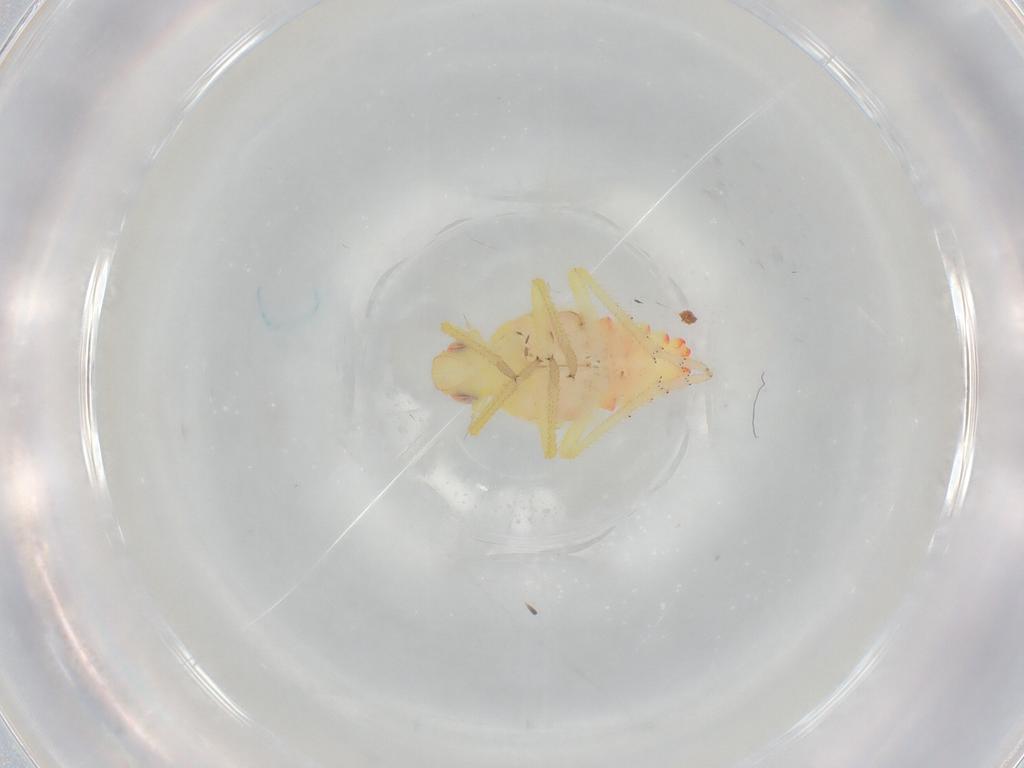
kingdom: Animalia
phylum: Arthropoda
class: Insecta
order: Hemiptera
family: Tropiduchidae
